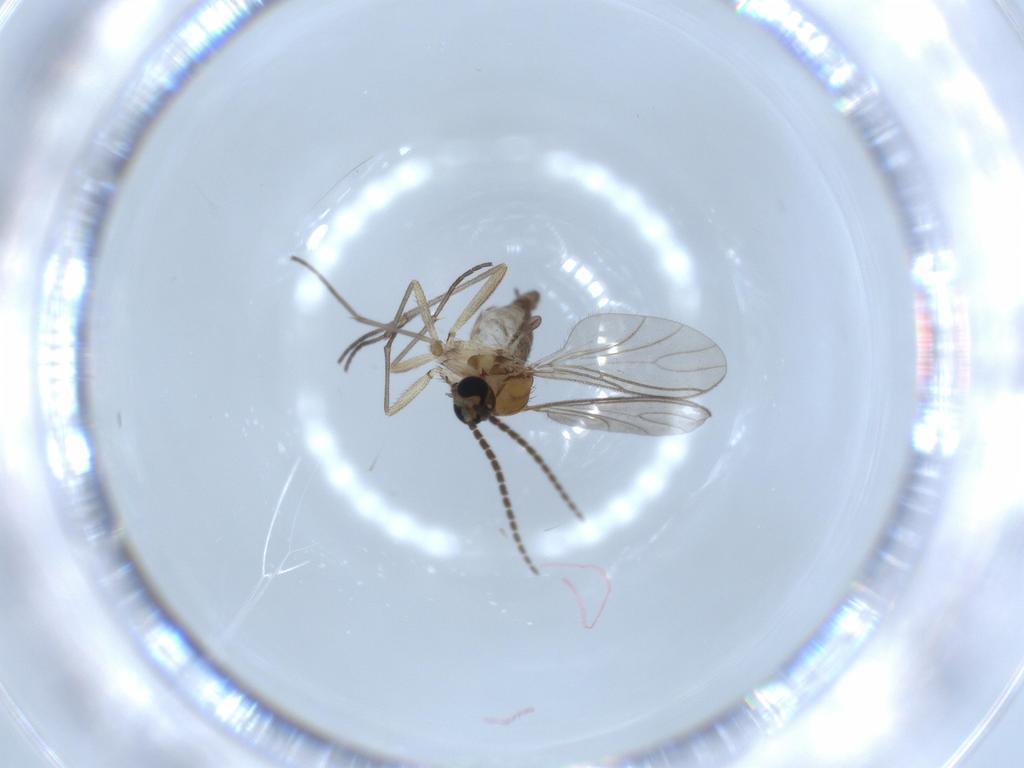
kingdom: Animalia
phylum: Arthropoda
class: Insecta
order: Diptera
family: Sciaridae
